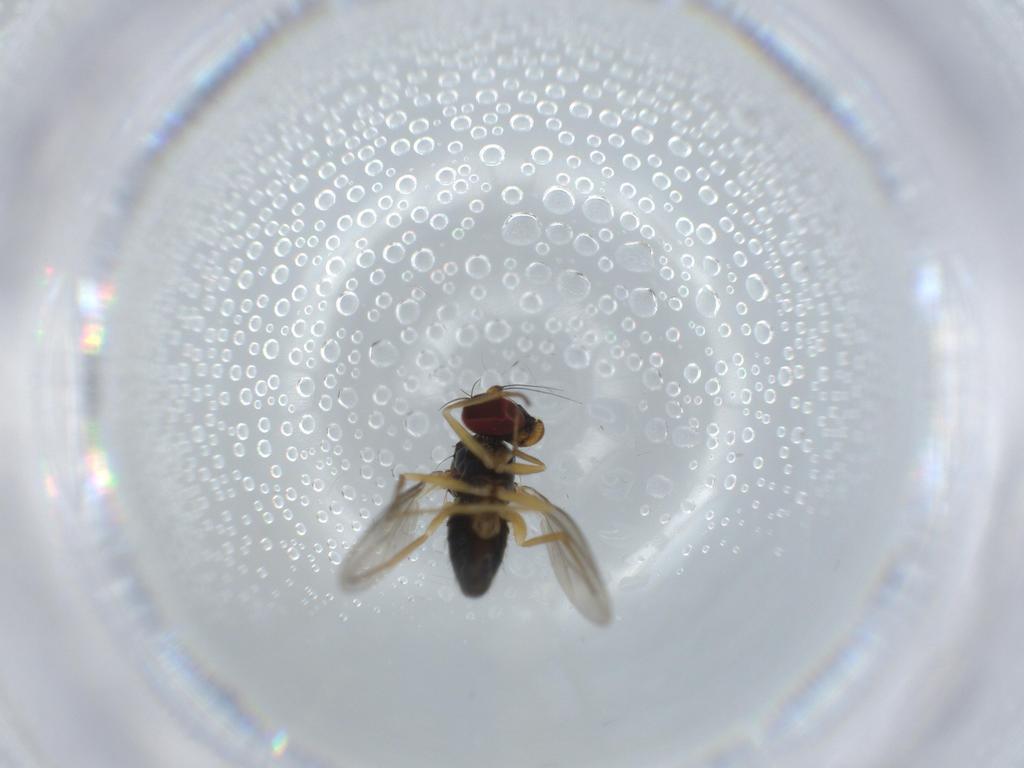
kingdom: Animalia
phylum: Arthropoda
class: Insecta
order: Diptera
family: Dolichopodidae
